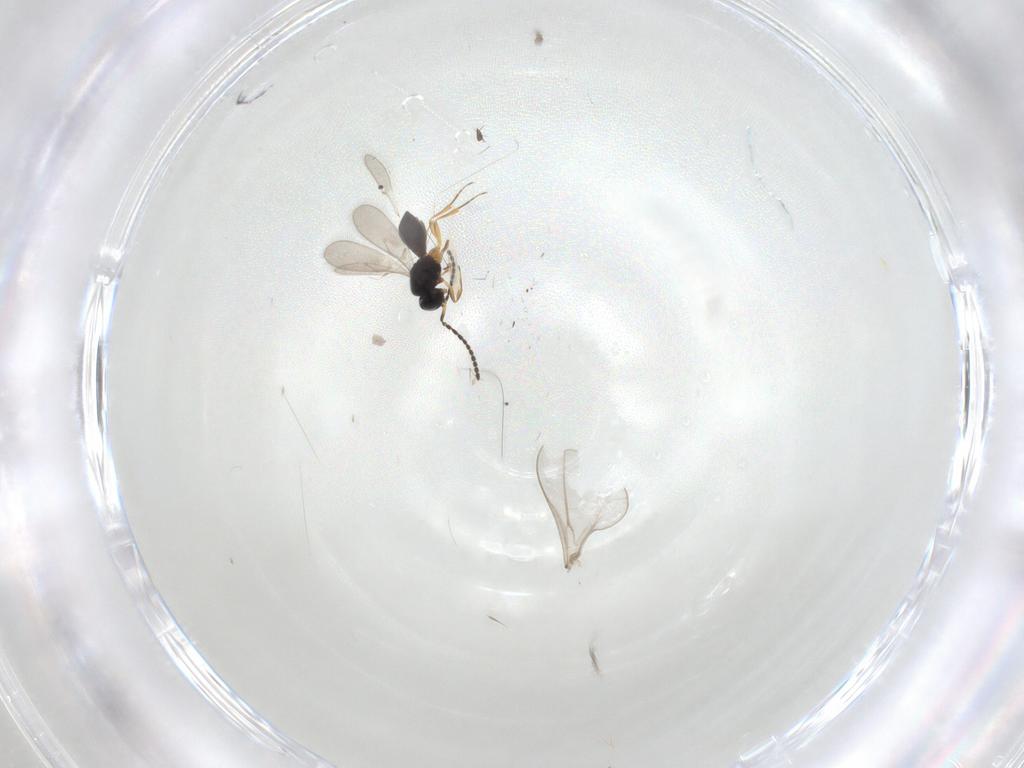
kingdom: Animalia
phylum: Arthropoda
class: Insecta
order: Hymenoptera
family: Scelionidae
